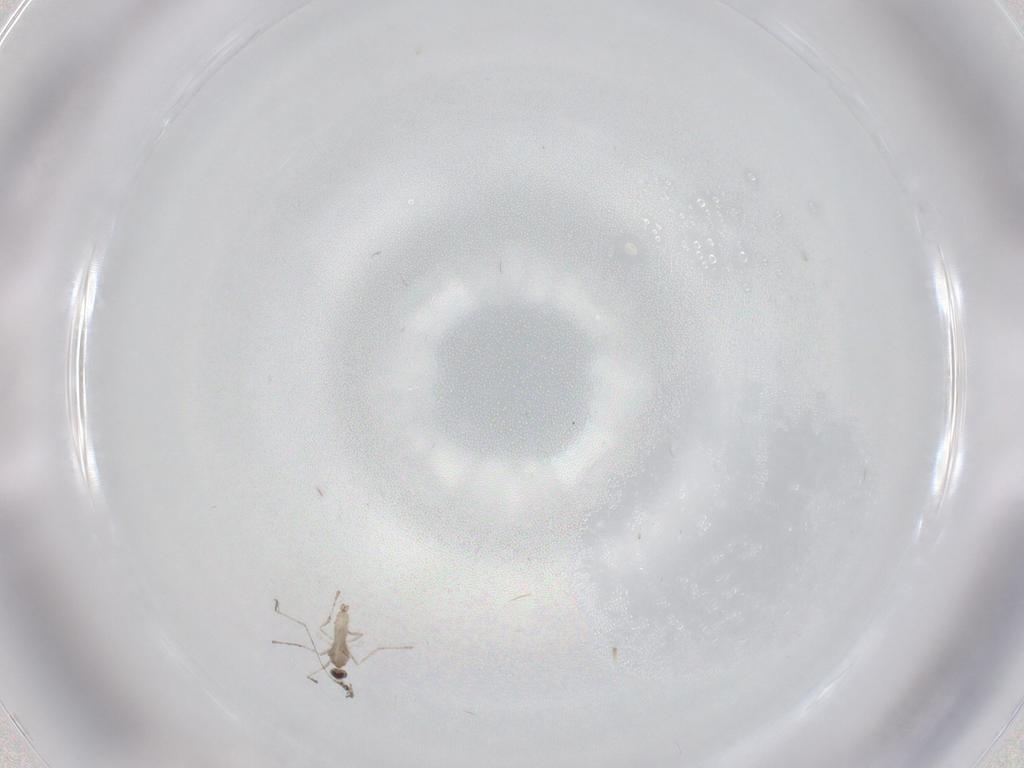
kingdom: Animalia
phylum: Arthropoda
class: Insecta
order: Diptera
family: Cecidomyiidae
